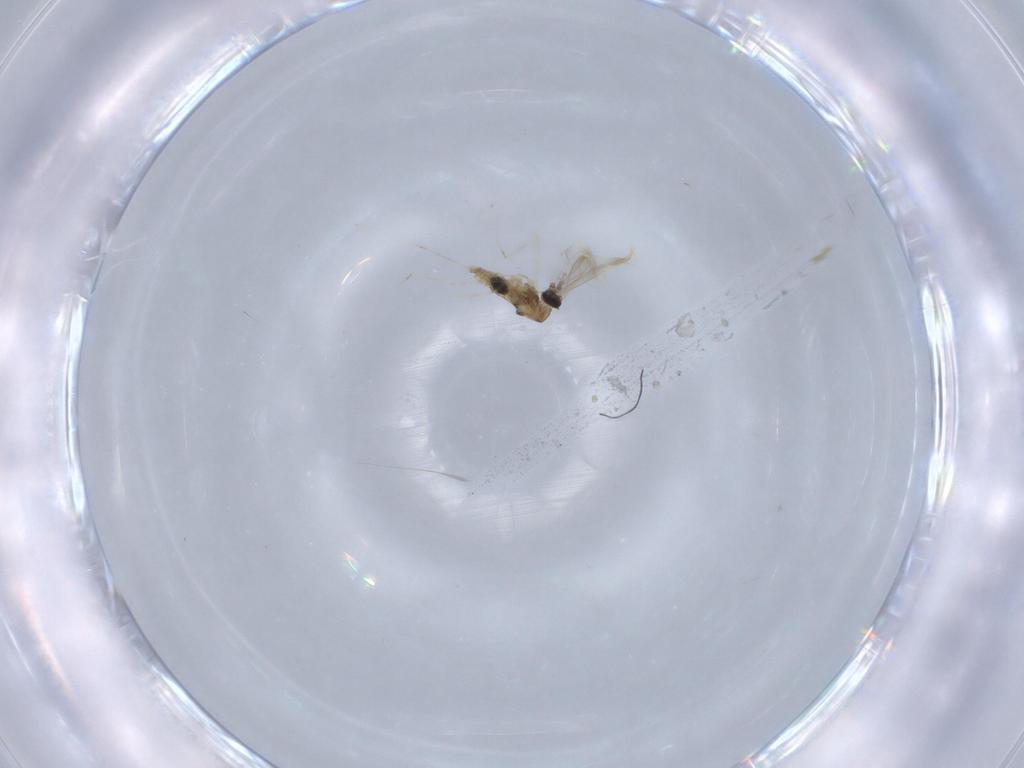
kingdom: Animalia
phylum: Arthropoda
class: Insecta
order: Diptera
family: Cecidomyiidae
